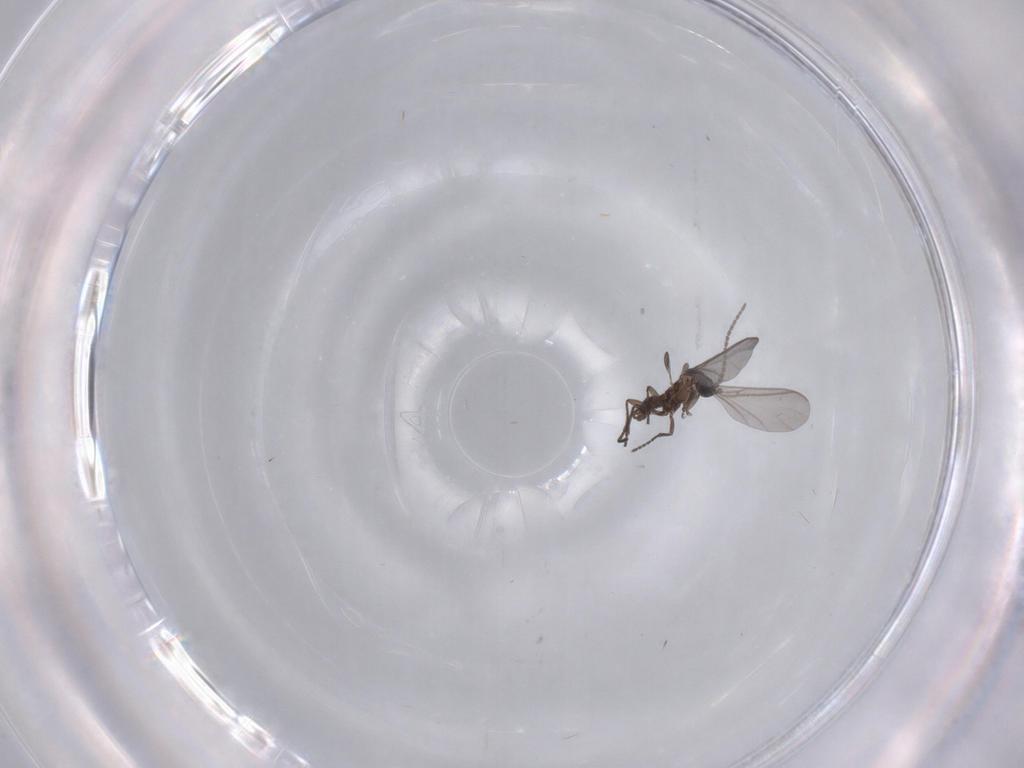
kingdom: Animalia
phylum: Arthropoda
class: Insecta
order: Diptera
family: Sciaridae
